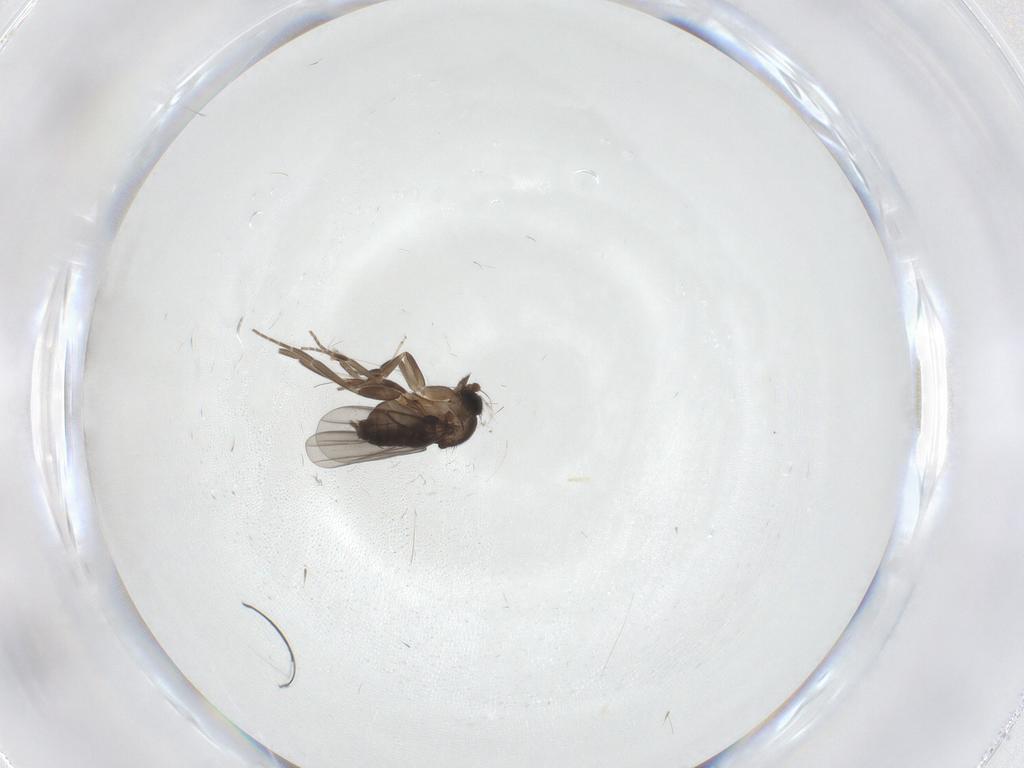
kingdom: Animalia
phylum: Arthropoda
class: Insecta
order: Diptera
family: Phoridae
